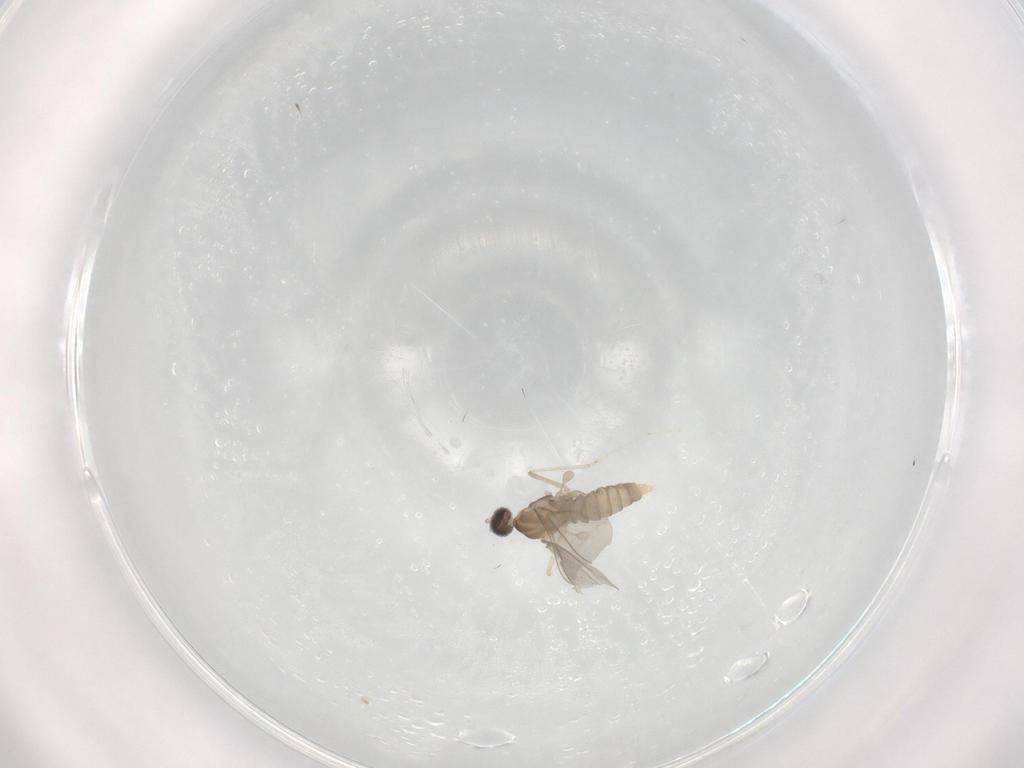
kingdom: Animalia
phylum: Arthropoda
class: Insecta
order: Diptera
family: Cecidomyiidae
